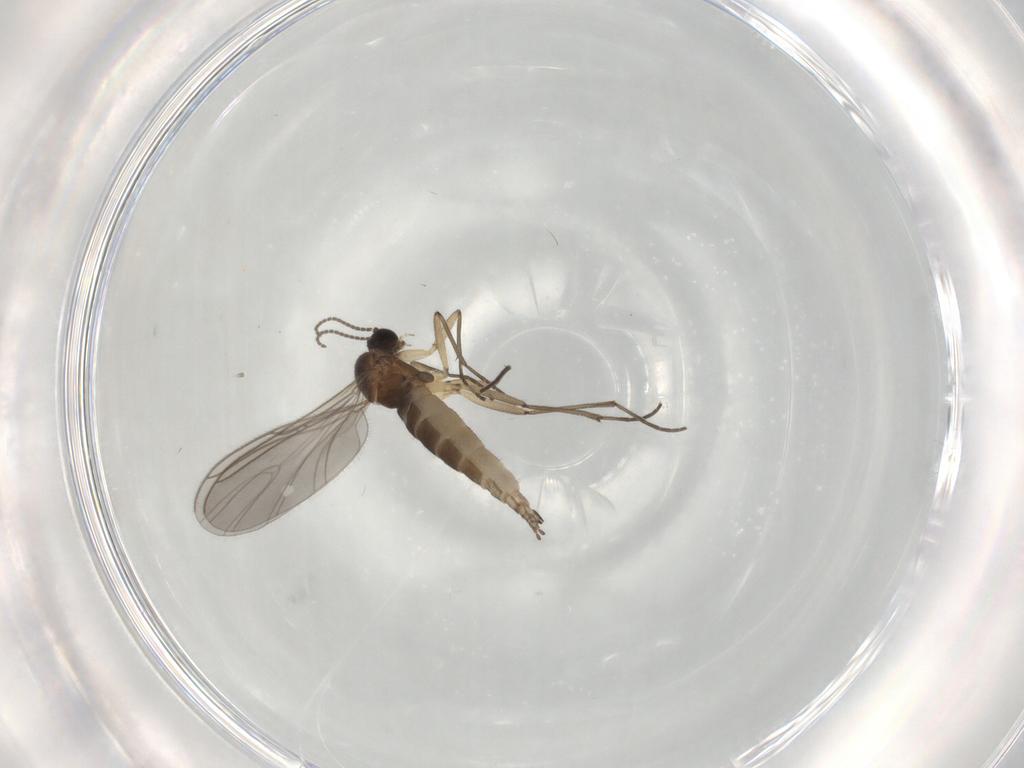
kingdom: Animalia
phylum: Arthropoda
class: Insecta
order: Diptera
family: Sciaridae
